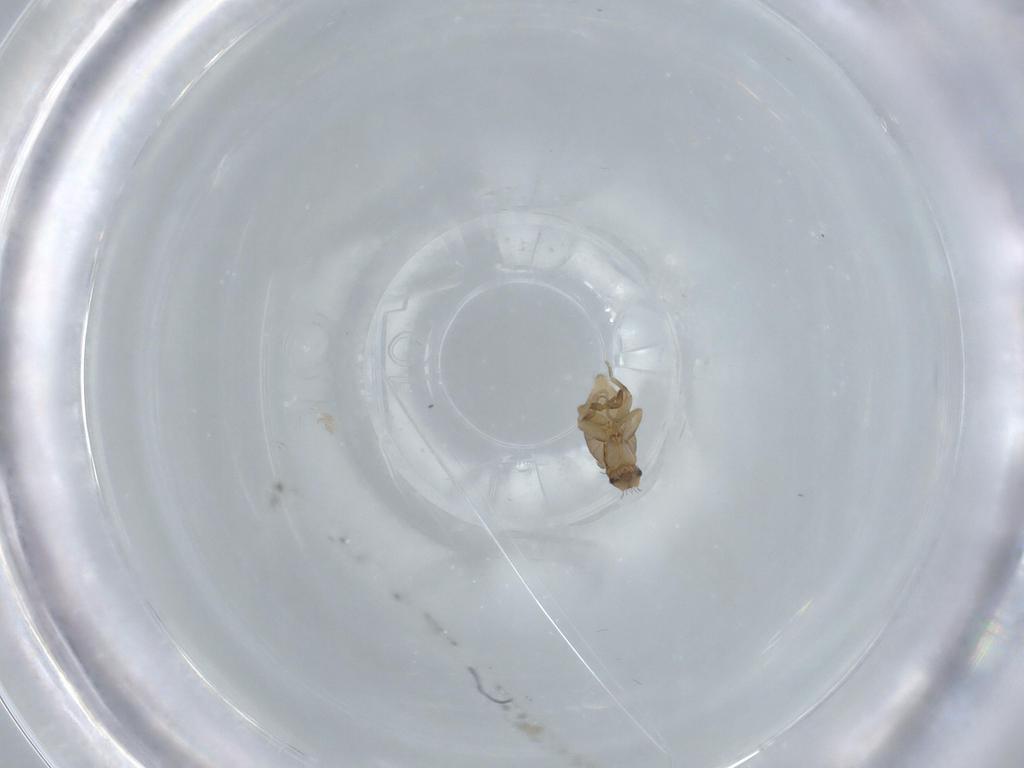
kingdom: Animalia
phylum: Arthropoda
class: Insecta
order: Diptera
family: Phoridae
